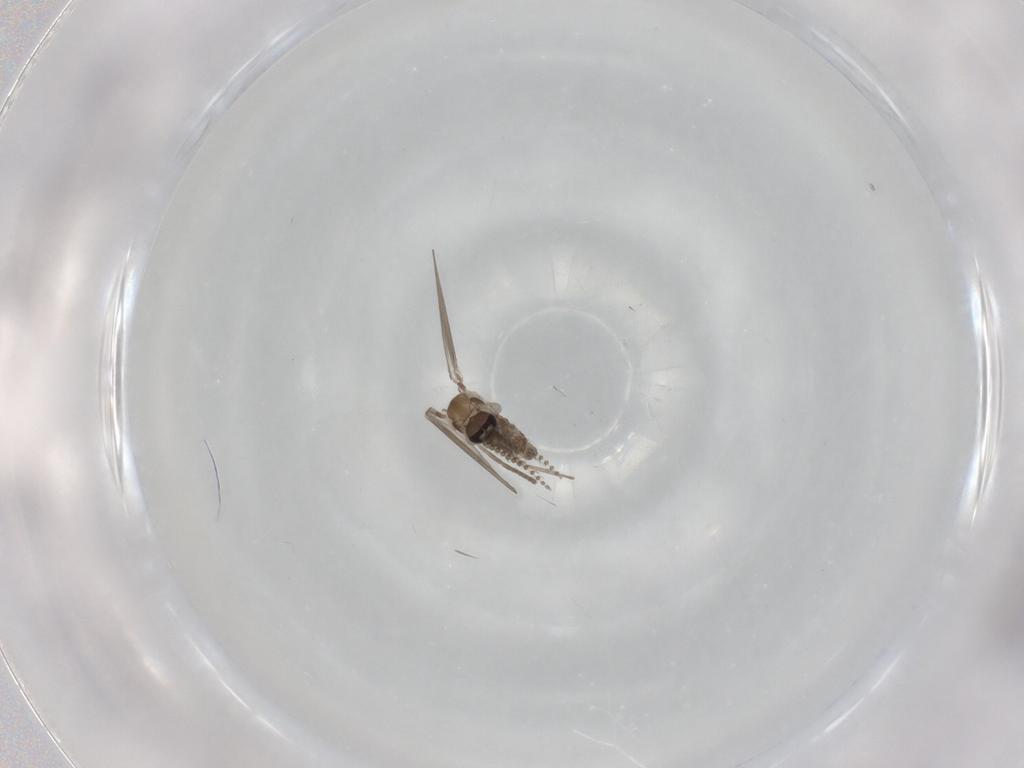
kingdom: Animalia
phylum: Arthropoda
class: Insecta
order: Diptera
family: Psychodidae
